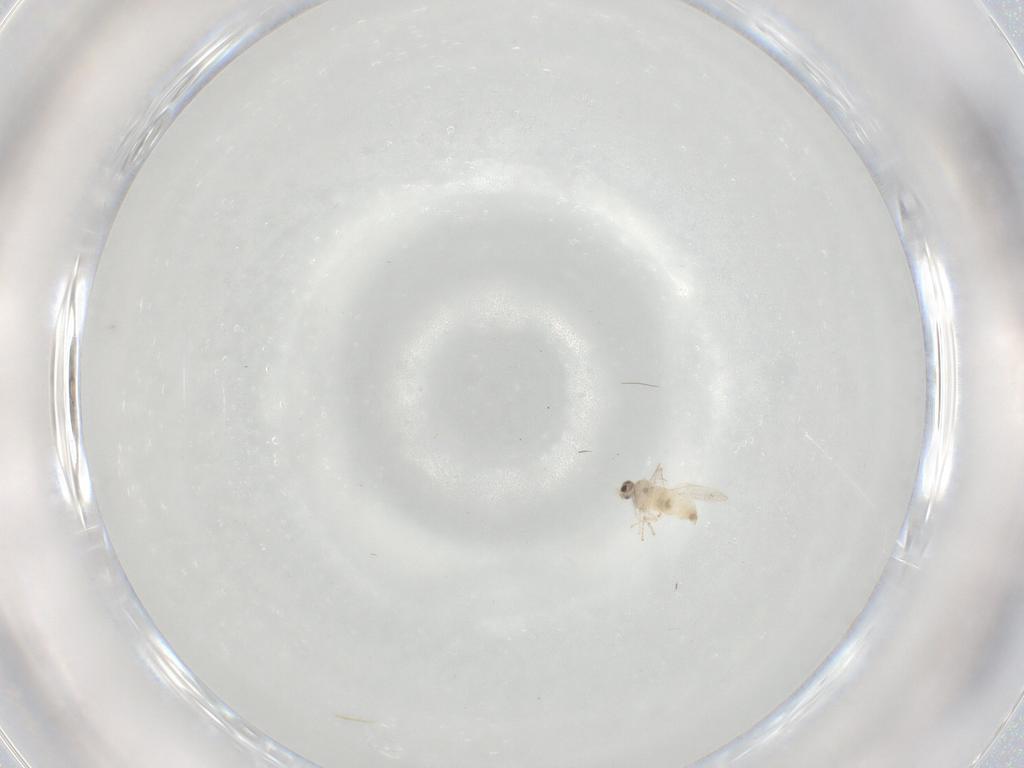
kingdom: Animalia
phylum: Arthropoda
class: Insecta
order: Diptera
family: Cecidomyiidae
